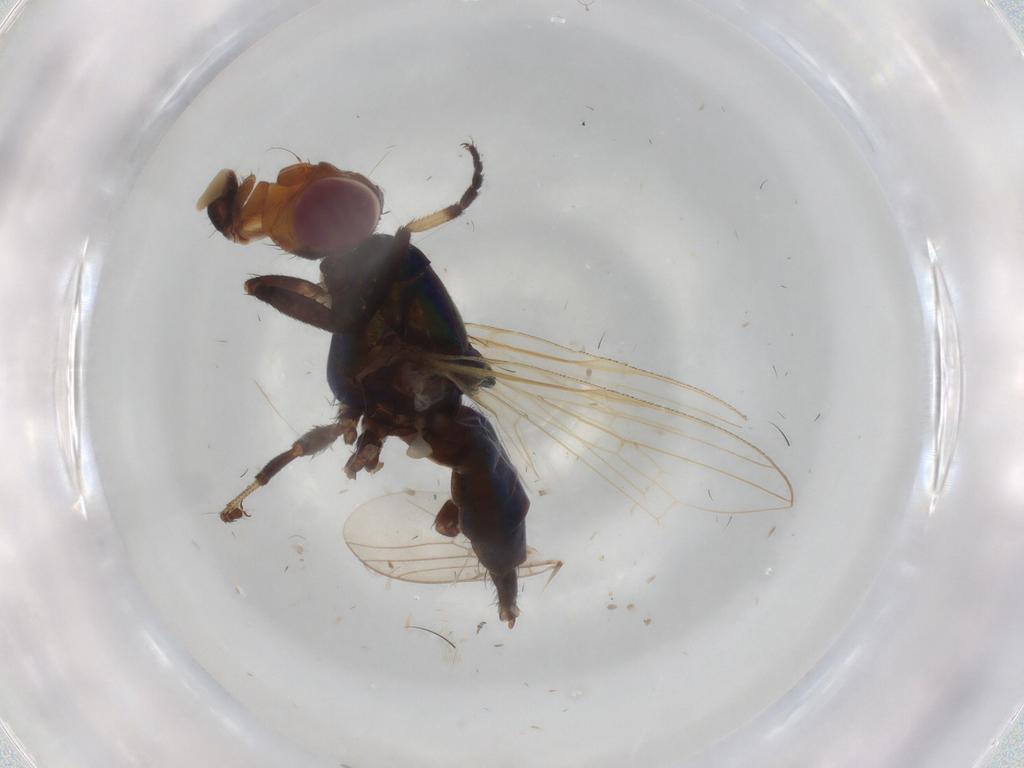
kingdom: Animalia
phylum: Arthropoda
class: Insecta
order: Diptera
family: Ulidiidae
